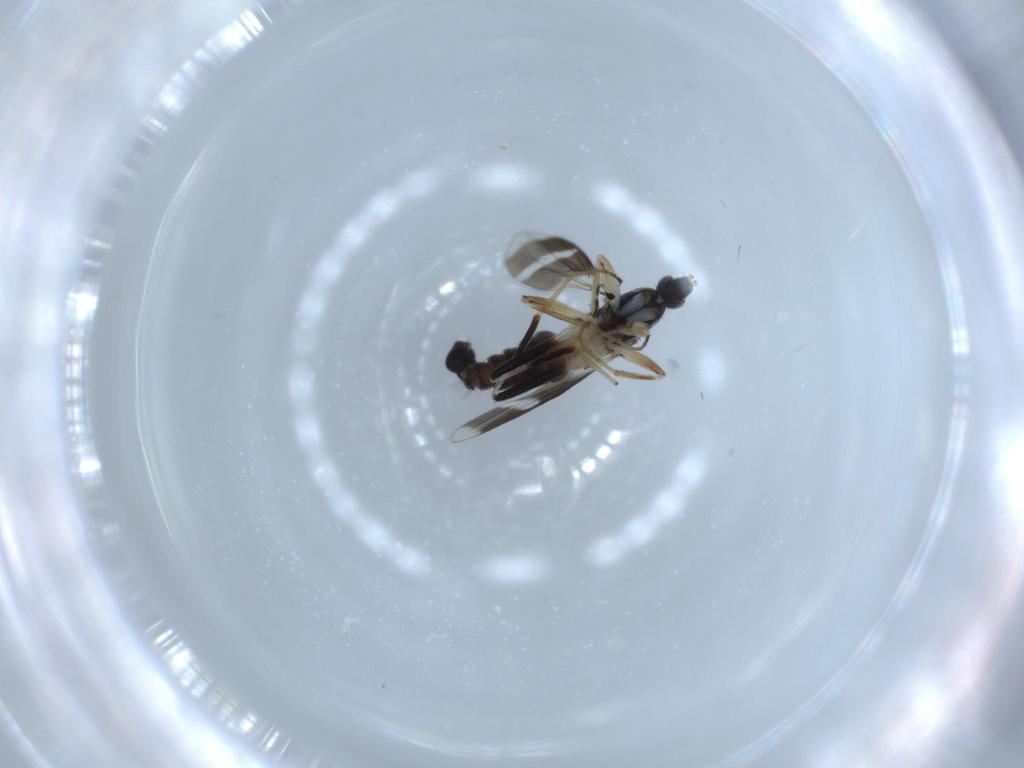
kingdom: Animalia
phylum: Arthropoda
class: Insecta
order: Diptera
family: Hybotidae
